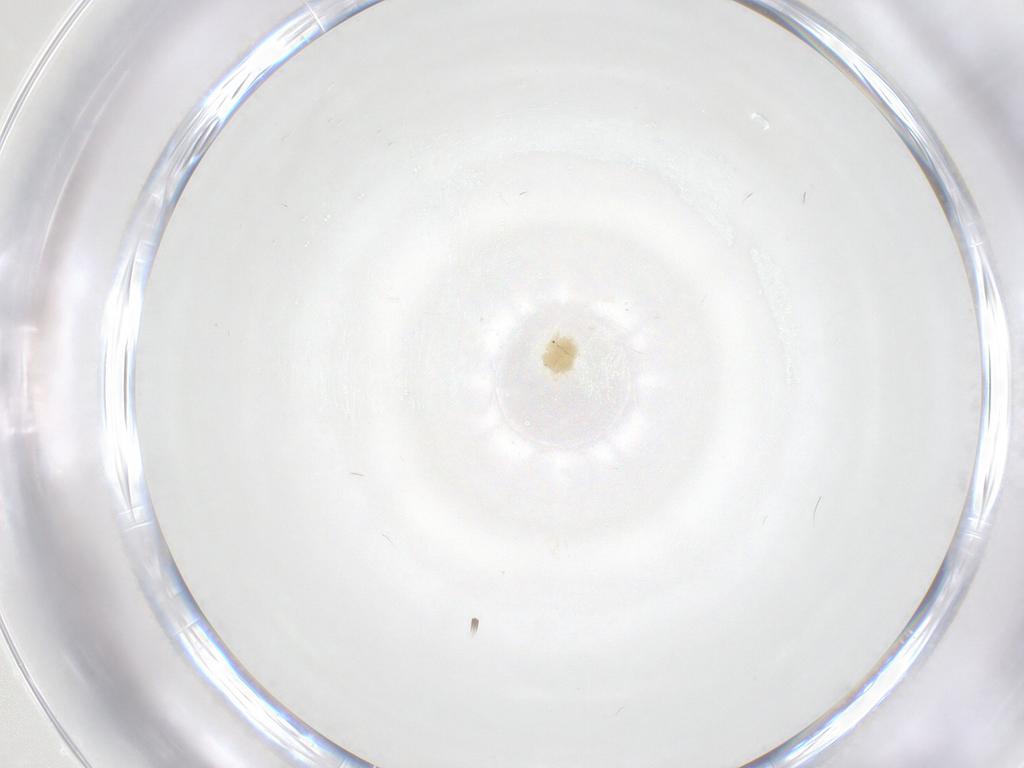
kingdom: Animalia
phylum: Arthropoda
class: Arachnida
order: Trombidiformes
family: Anystidae
